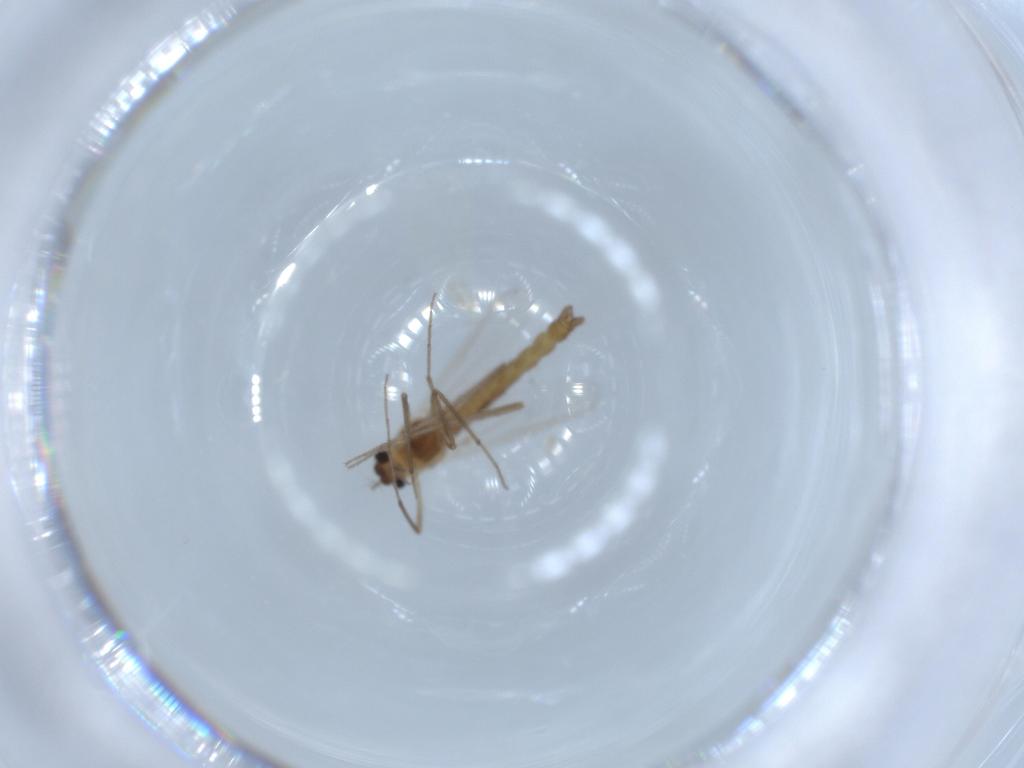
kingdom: Animalia
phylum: Arthropoda
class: Insecta
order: Diptera
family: Chironomidae
